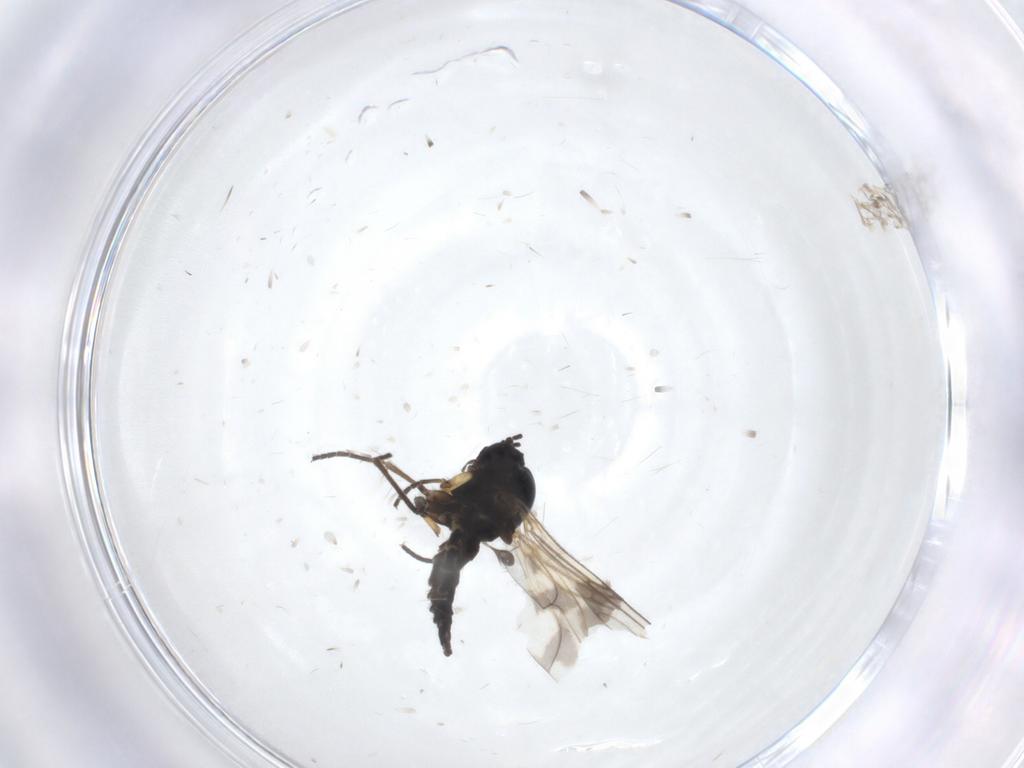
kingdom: Animalia
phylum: Arthropoda
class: Insecta
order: Diptera
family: Sciaridae
